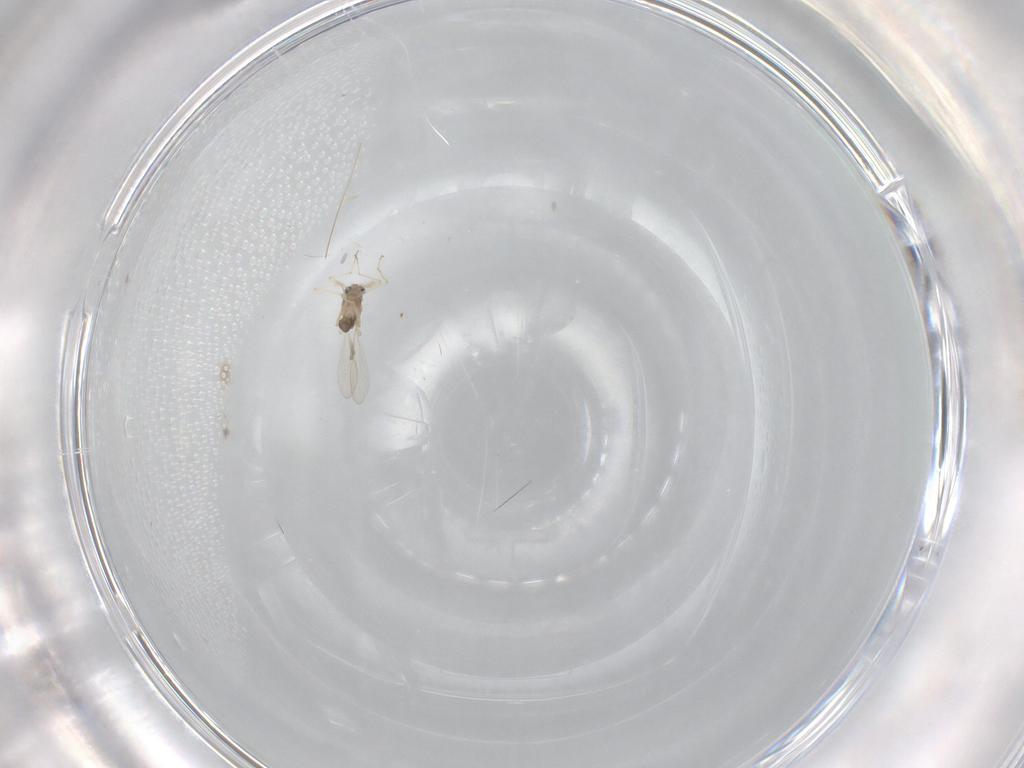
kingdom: Animalia
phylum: Arthropoda
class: Insecta
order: Diptera
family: Chironomidae
